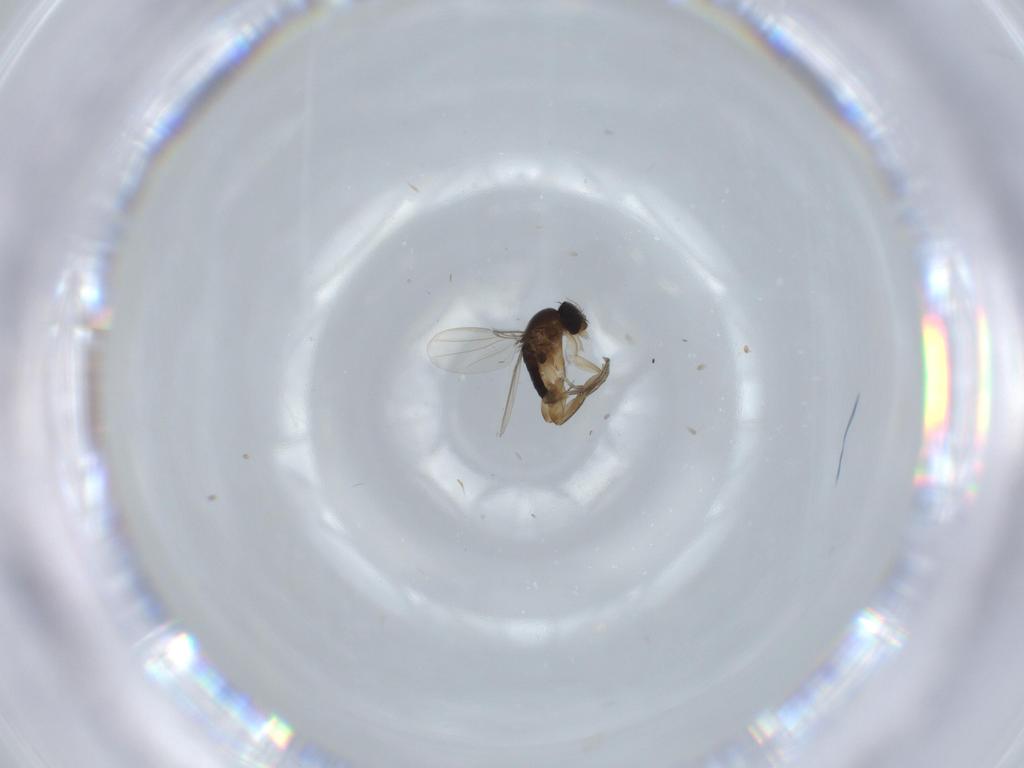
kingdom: Animalia
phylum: Arthropoda
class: Insecta
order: Diptera
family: Phoridae
